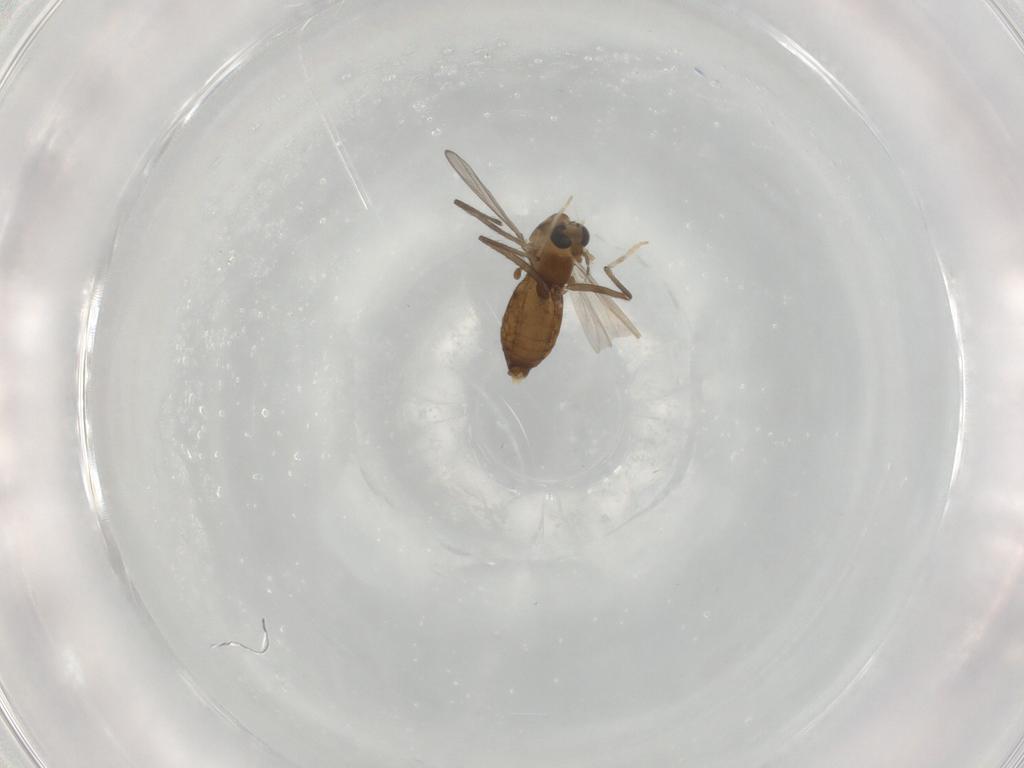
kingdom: Animalia
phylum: Arthropoda
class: Insecta
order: Diptera
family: Chironomidae
